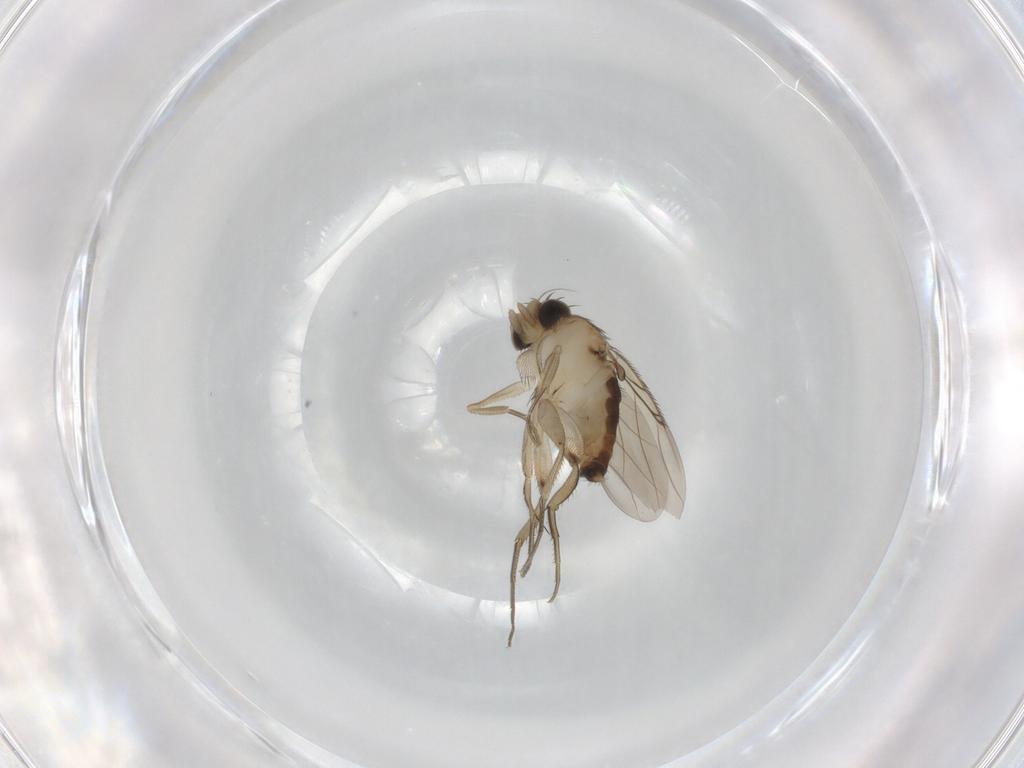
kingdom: Animalia
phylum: Arthropoda
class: Insecta
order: Diptera
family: Phoridae
